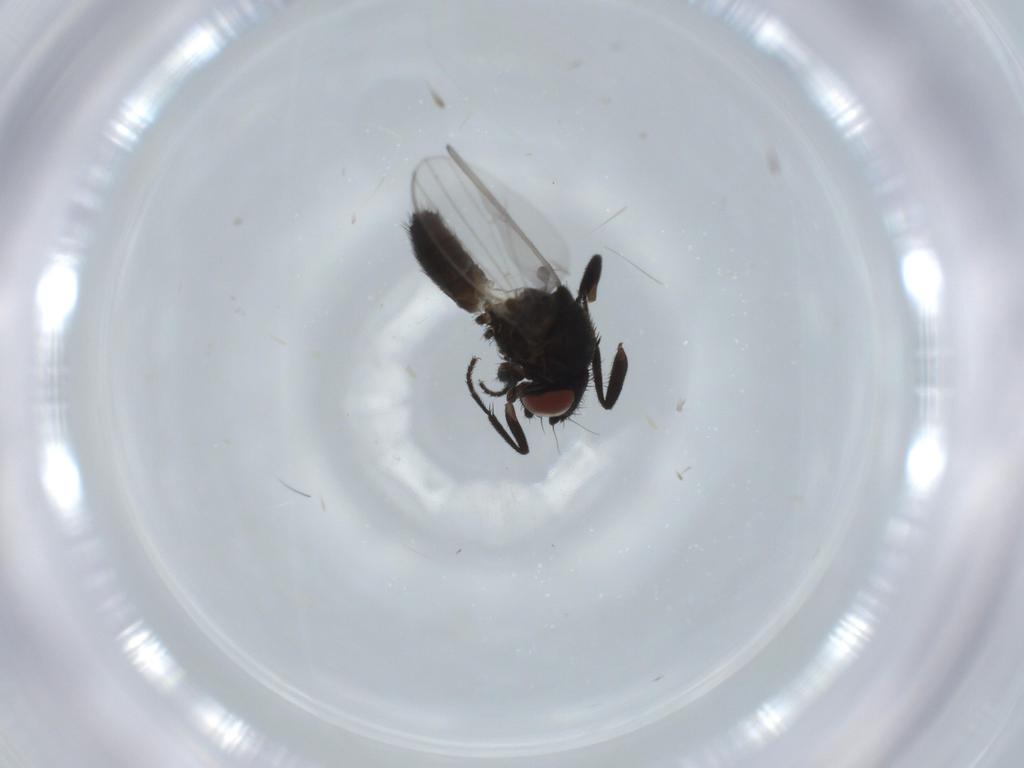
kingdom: Animalia
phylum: Arthropoda
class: Insecta
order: Diptera
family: Milichiidae
